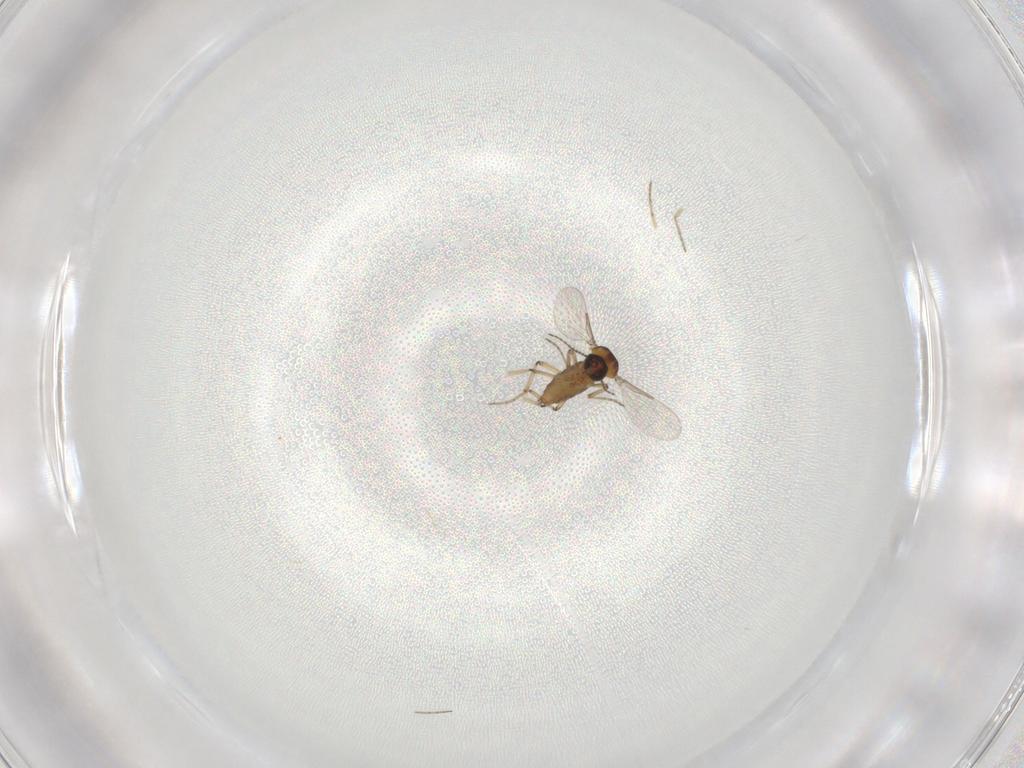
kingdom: Animalia
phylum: Arthropoda
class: Insecta
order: Diptera
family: Ceratopogonidae
